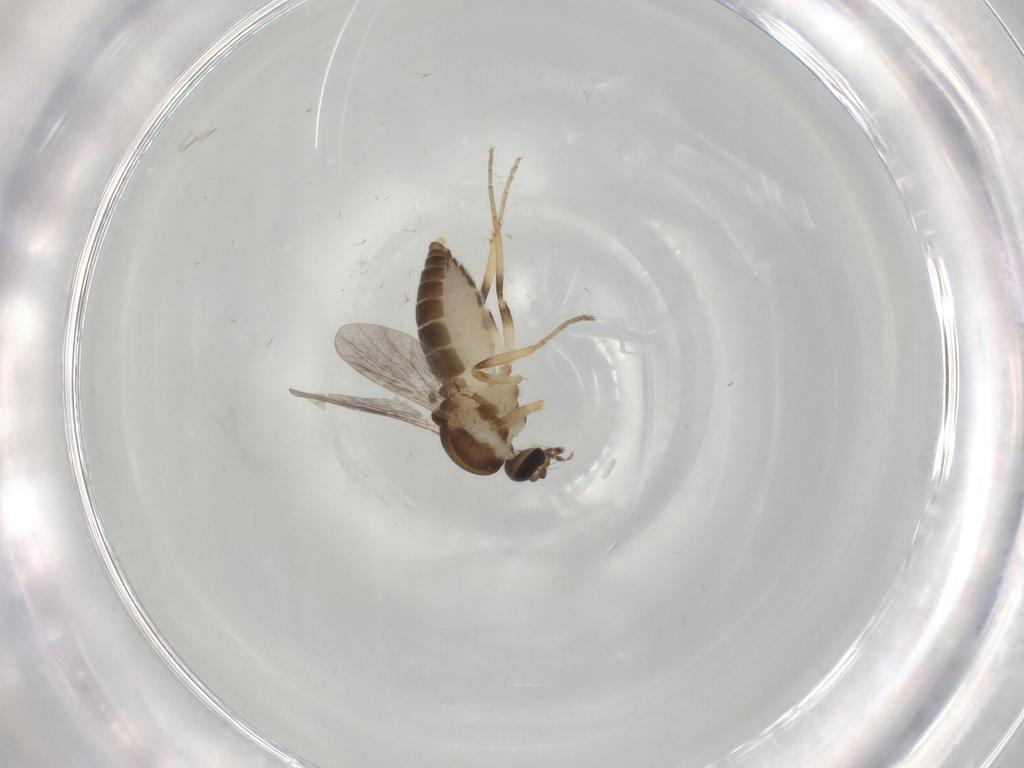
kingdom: Animalia
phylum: Arthropoda
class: Insecta
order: Diptera
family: Ceratopogonidae
